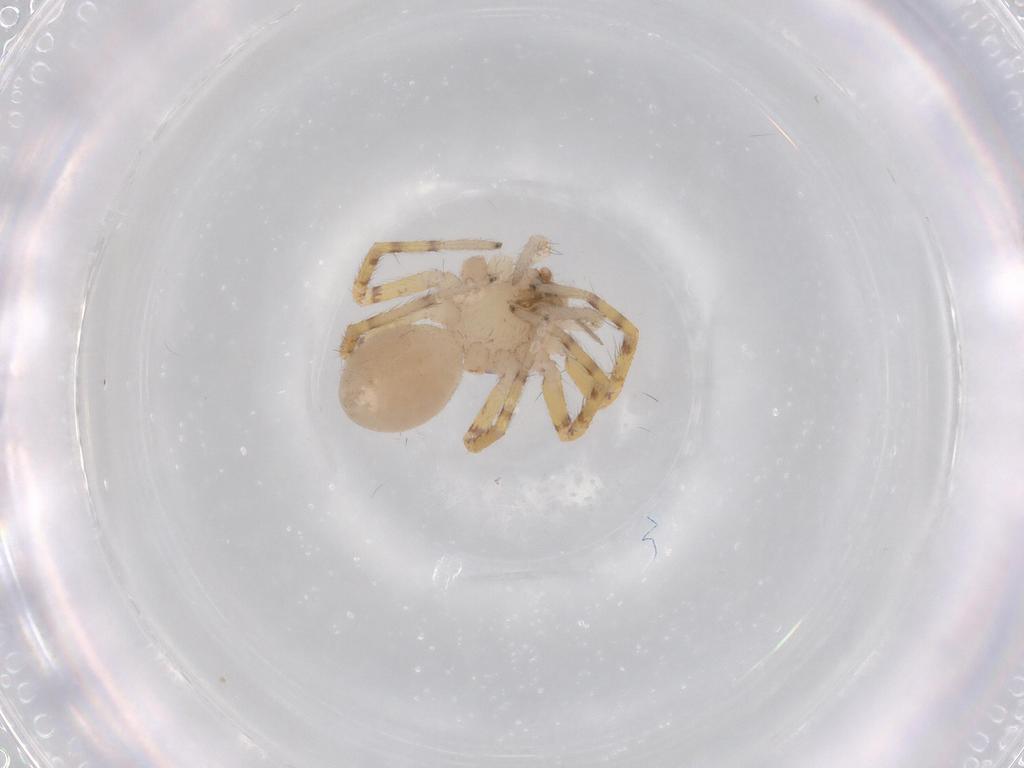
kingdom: Animalia
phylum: Arthropoda
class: Arachnida
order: Araneae
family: Corinnidae
